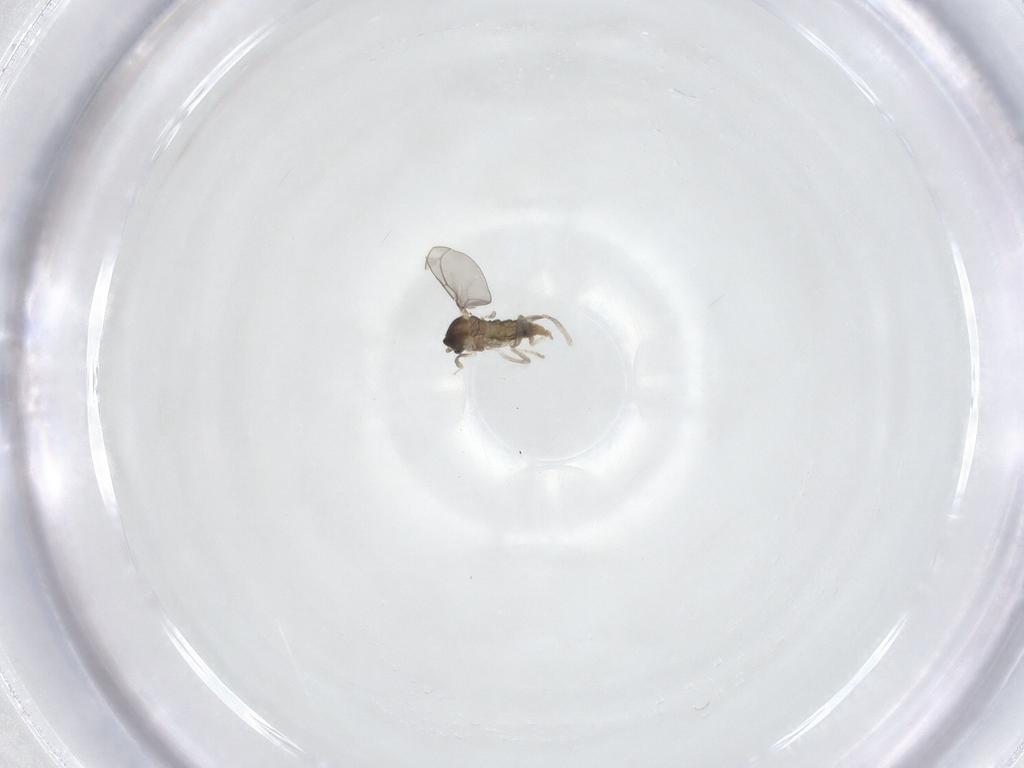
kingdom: Animalia
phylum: Arthropoda
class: Insecta
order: Diptera
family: Cecidomyiidae
